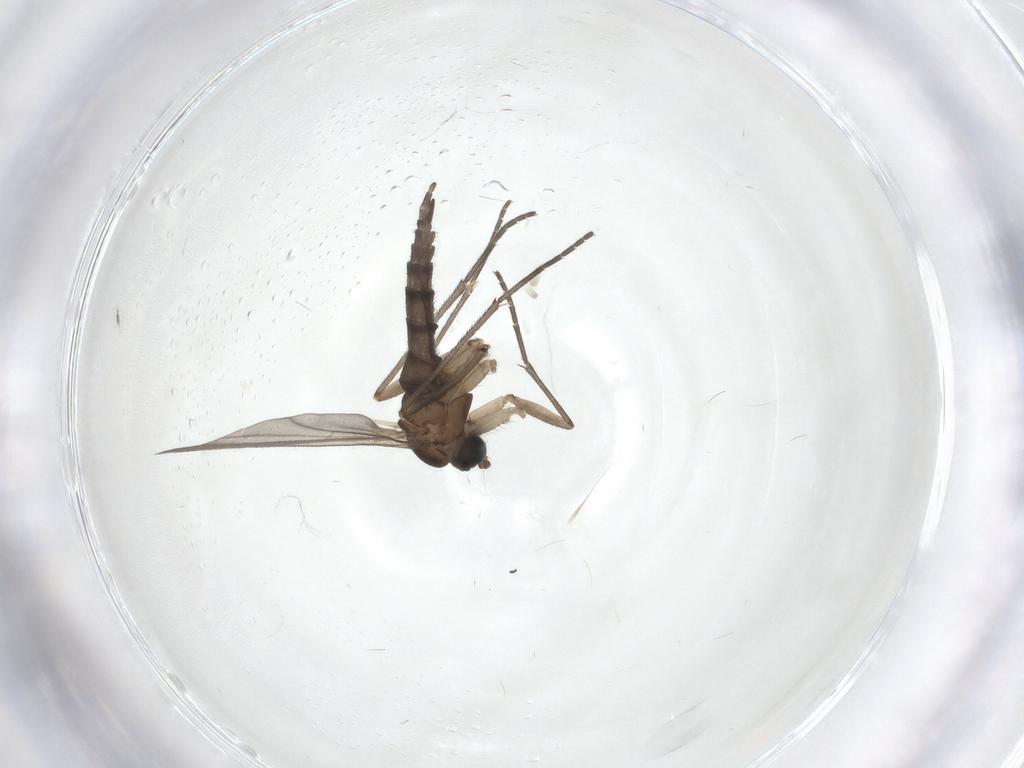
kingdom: Animalia
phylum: Arthropoda
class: Insecta
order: Diptera
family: Sciaridae
